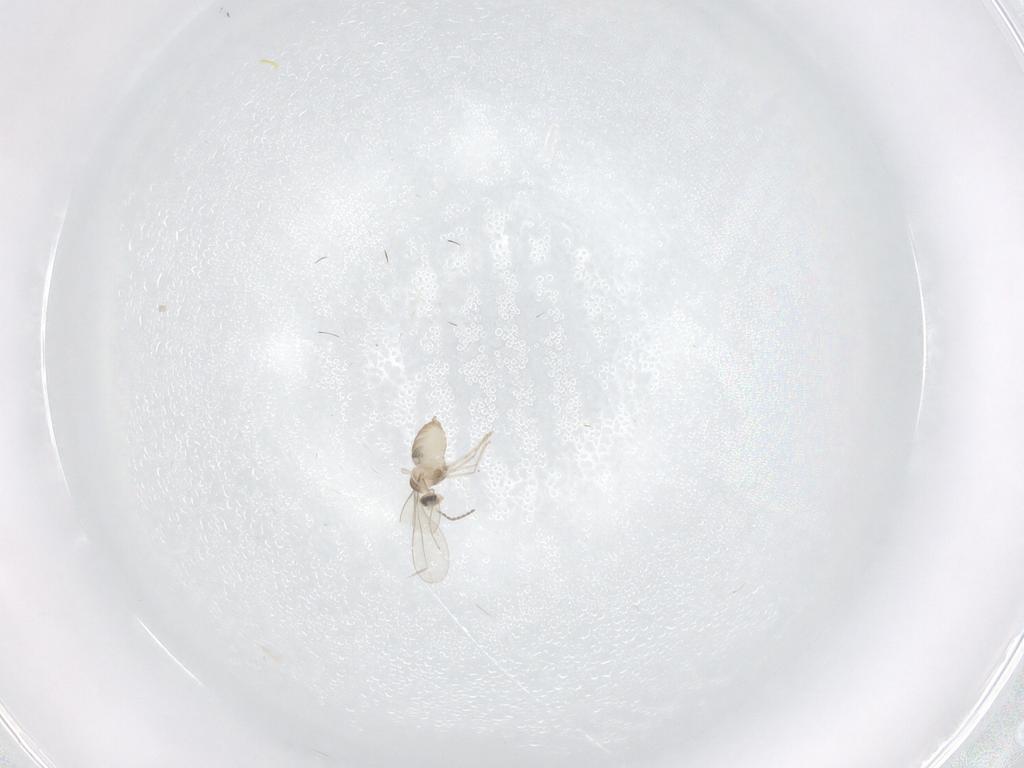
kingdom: Animalia
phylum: Arthropoda
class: Insecta
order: Diptera
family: Cecidomyiidae
